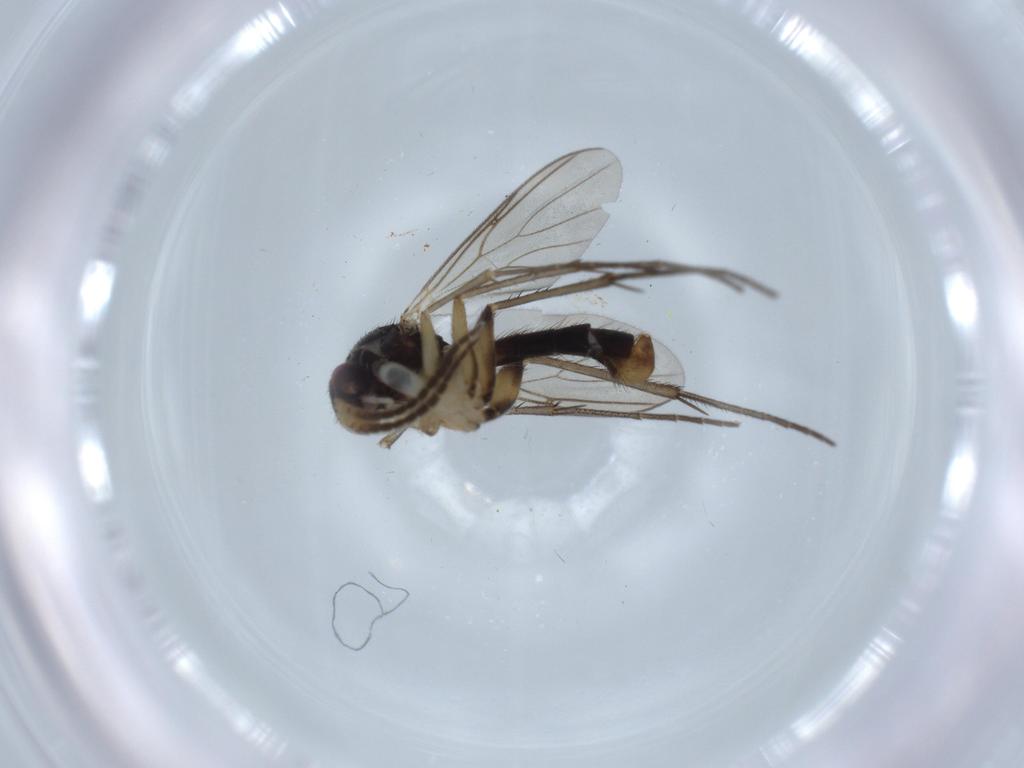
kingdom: Animalia
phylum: Arthropoda
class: Insecta
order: Diptera
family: Mycetophilidae
